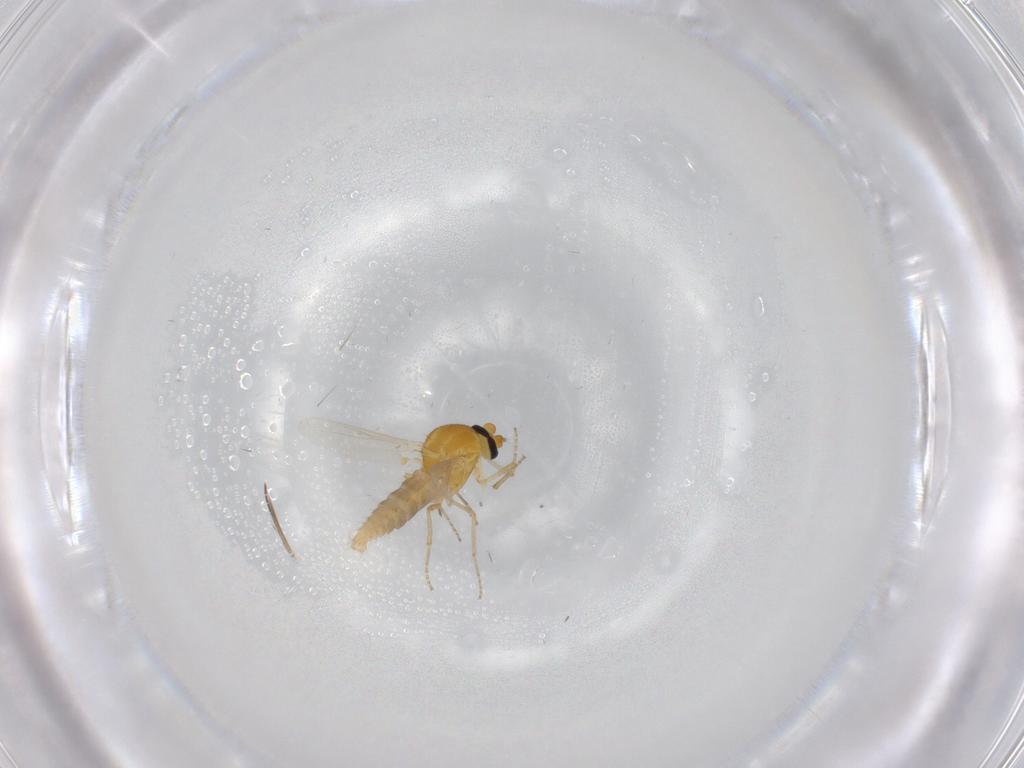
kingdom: Animalia
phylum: Arthropoda
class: Insecta
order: Diptera
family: Ceratopogonidae
